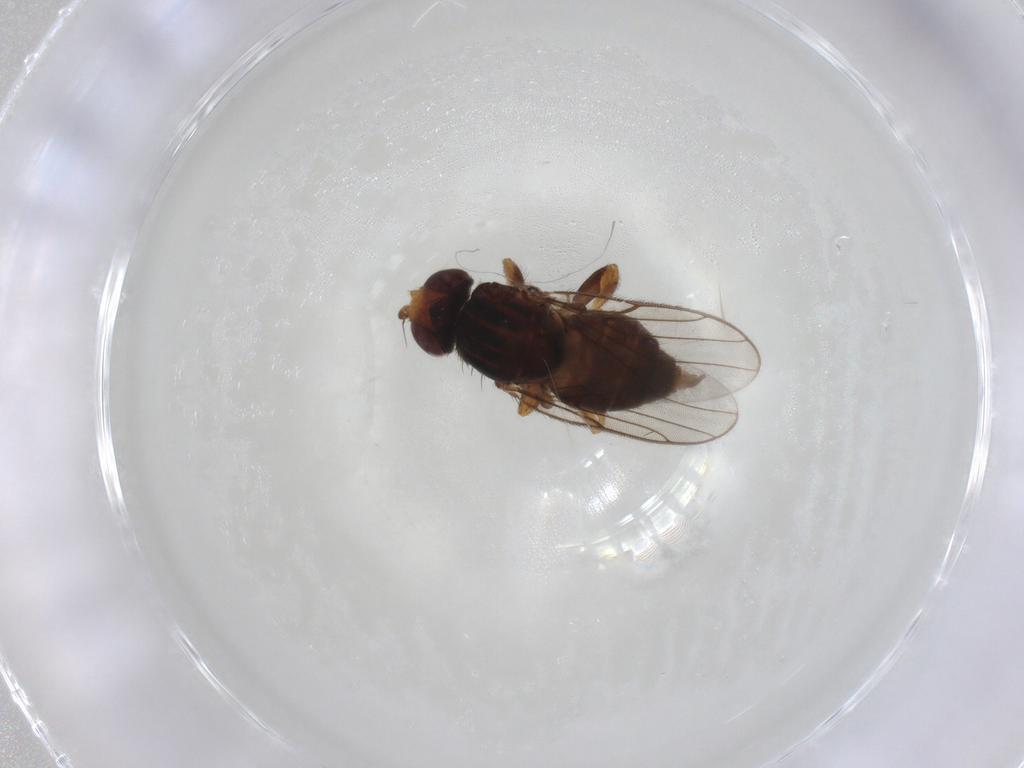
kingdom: Animalia
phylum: Arthropoda
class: Insecta
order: Diptera
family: Chloropidae
